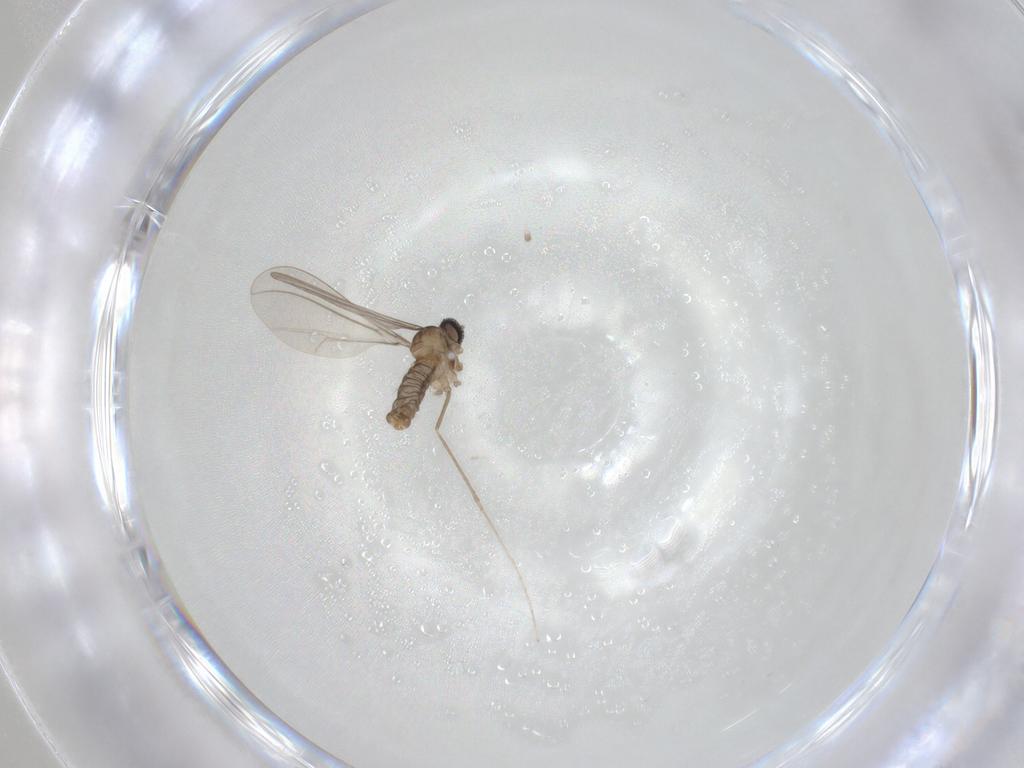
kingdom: Animalia
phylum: Arthropoda
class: Insecta
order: Diptera
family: Cecidomyiidae
